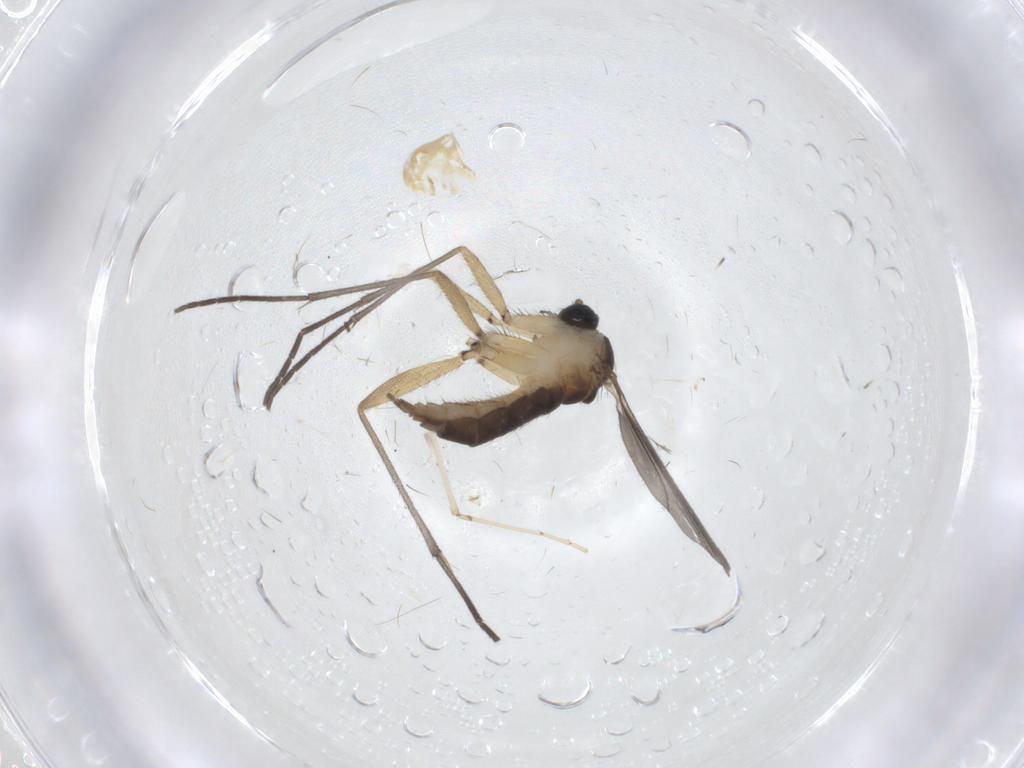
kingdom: Animalia
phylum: Arthropoda
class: Insecta
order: Diptera
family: Sciaridae
